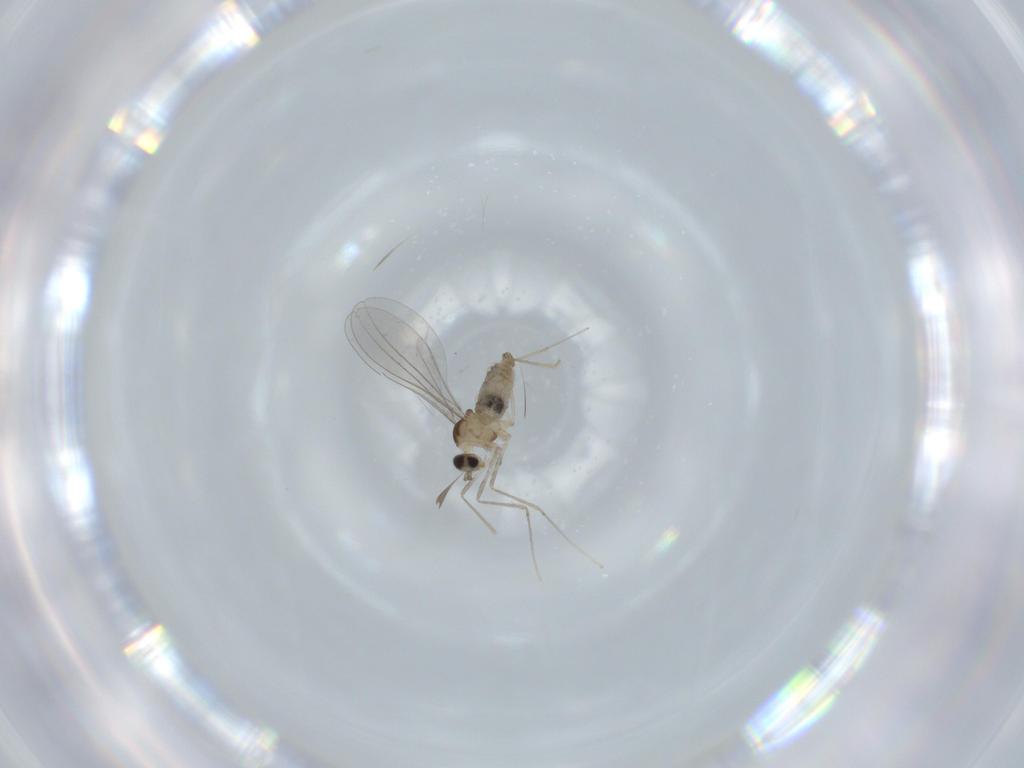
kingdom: Animalia
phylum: Arthropoda
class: Insecta
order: Diptera
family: Cecidomyiidae
